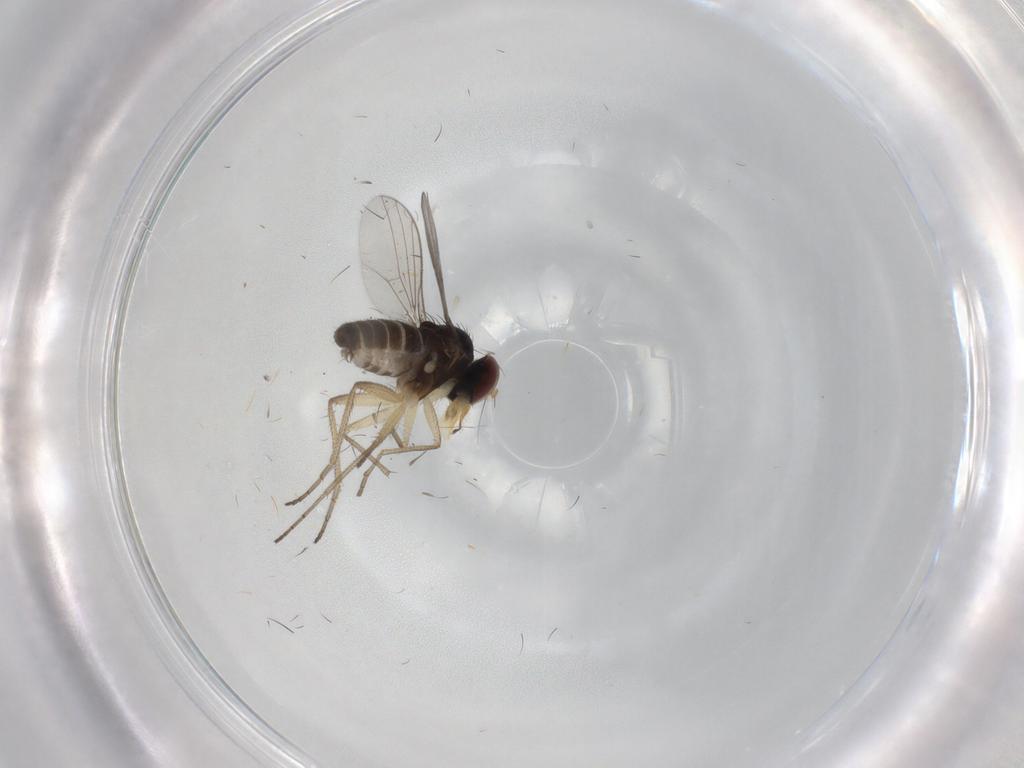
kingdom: Animalia
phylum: Arthropoda
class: Insecta
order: Diptera
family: Dolichopodidae
